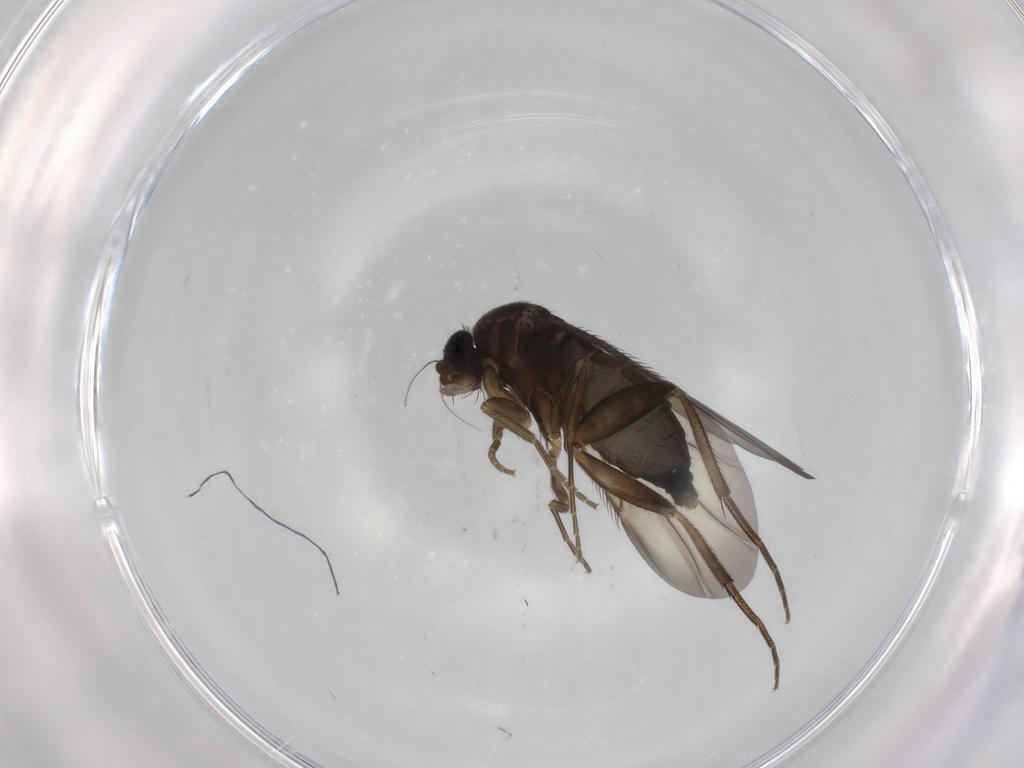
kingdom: Animalia
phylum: Arthropoda
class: Insecta
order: Diptera
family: Phoridae
